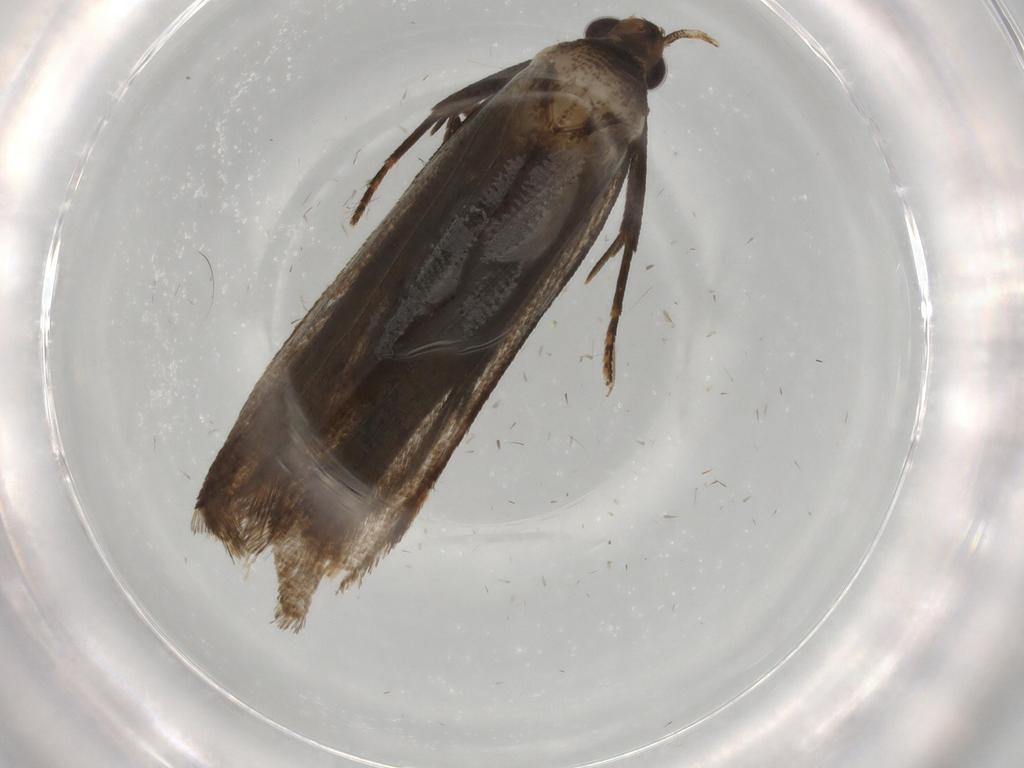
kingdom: Animalia
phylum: Arthropoda
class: Insecta
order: Lepidoptera
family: Gelechiidae
